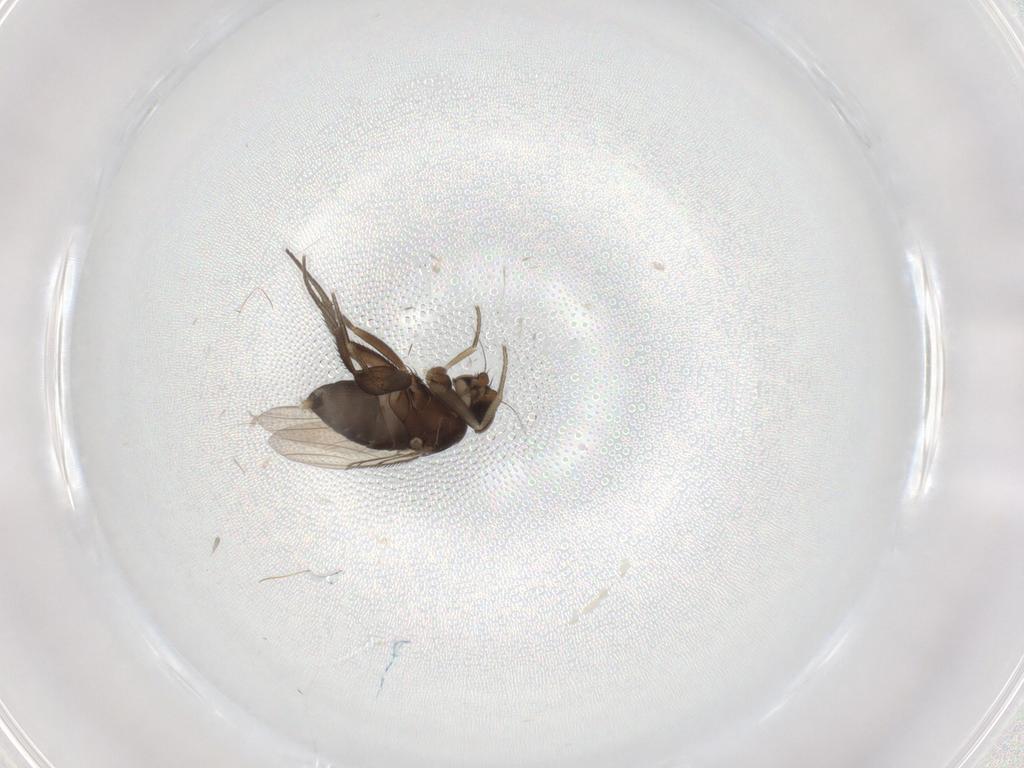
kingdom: Animalia
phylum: Arthropoda
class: Insecta
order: Diptera
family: Phoridae
